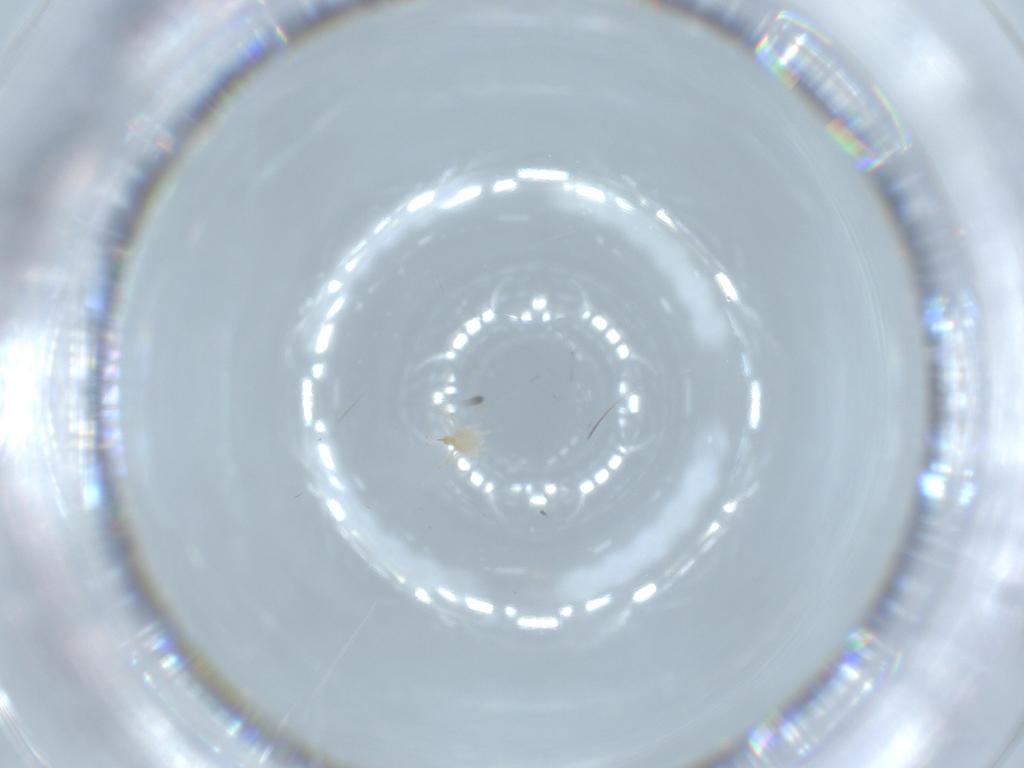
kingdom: Animalia
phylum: Arthropoda
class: Arachnida
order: Trombidiformes
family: Cunaxidae
